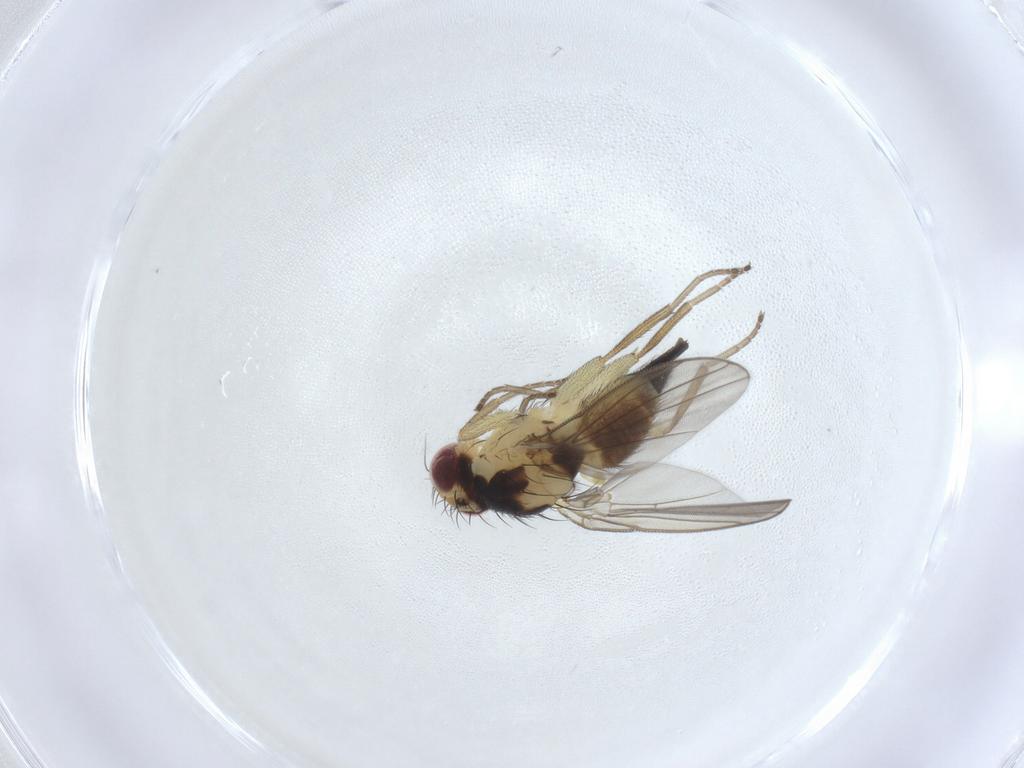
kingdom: Animalia
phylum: Arthropoda
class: Insecta
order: Diptera
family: Agromyzidae
